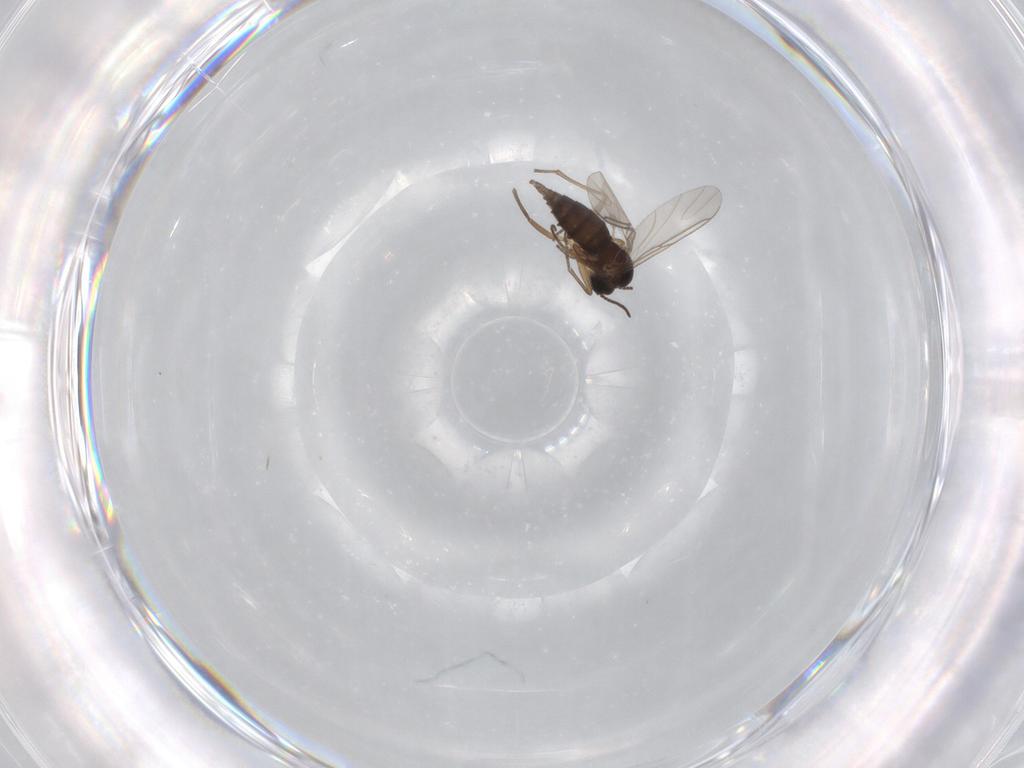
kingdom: Animalia
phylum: Arthropoda
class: Insecta
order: Diptera
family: Sciaridae
